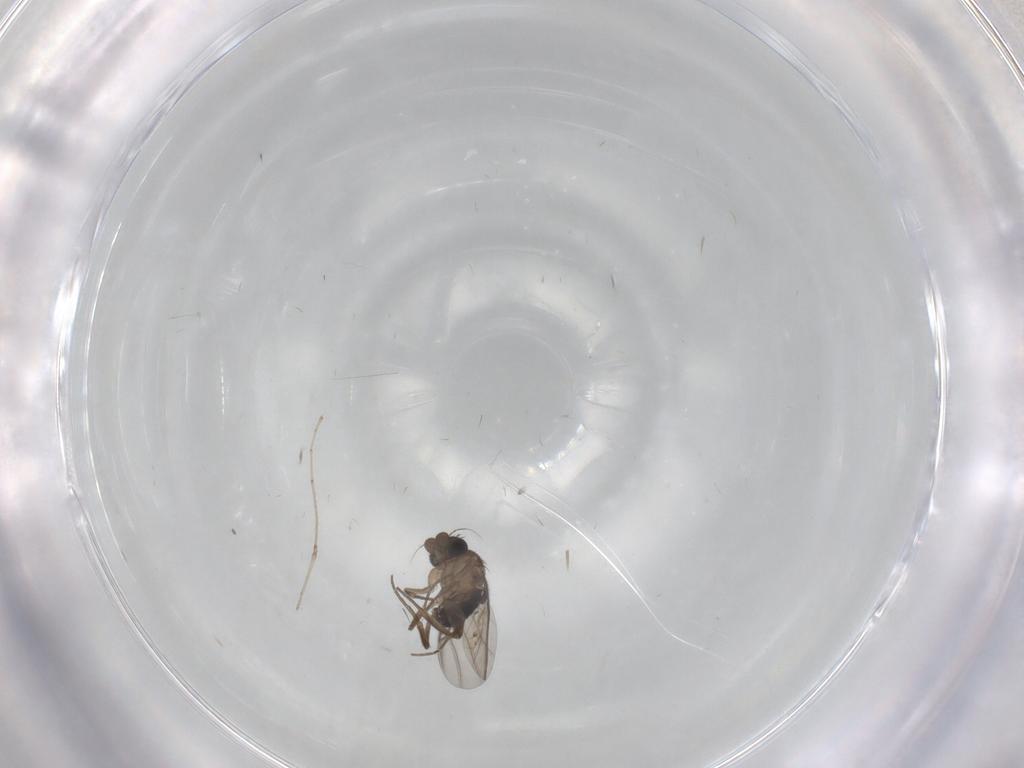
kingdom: Animalia
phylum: Arthropoda
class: Insecta
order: Diptera
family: Phoridae
